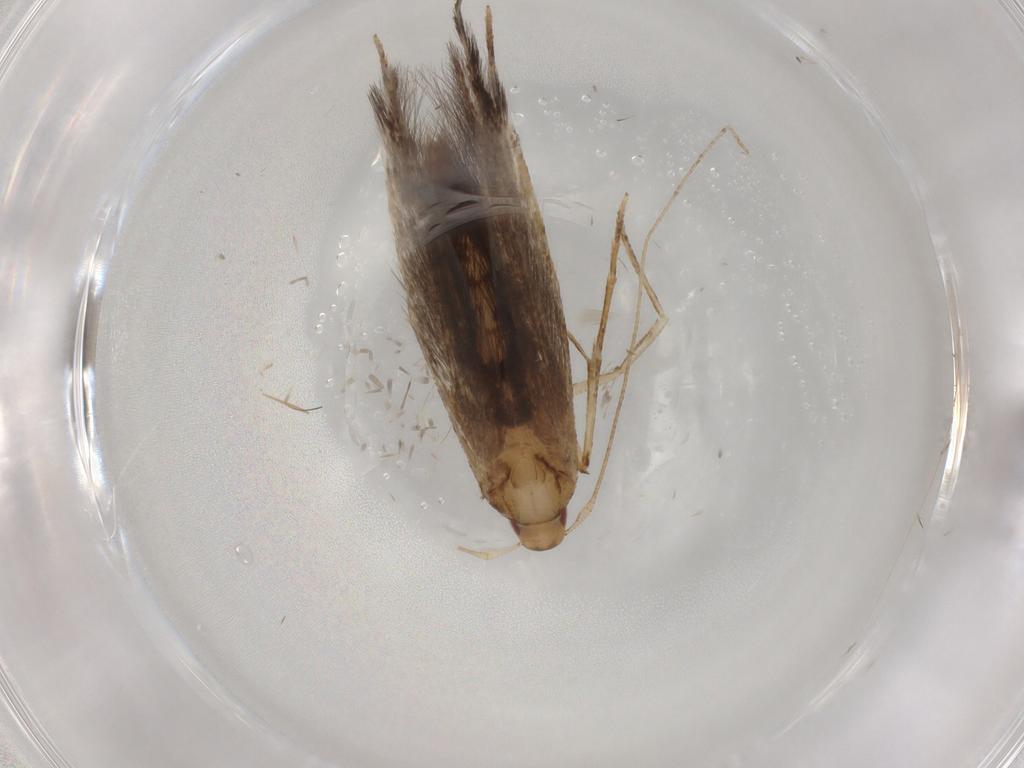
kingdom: Animalia
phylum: Arthropoda
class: Insecta
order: Lepidoptera
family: Cosmopterigidae
